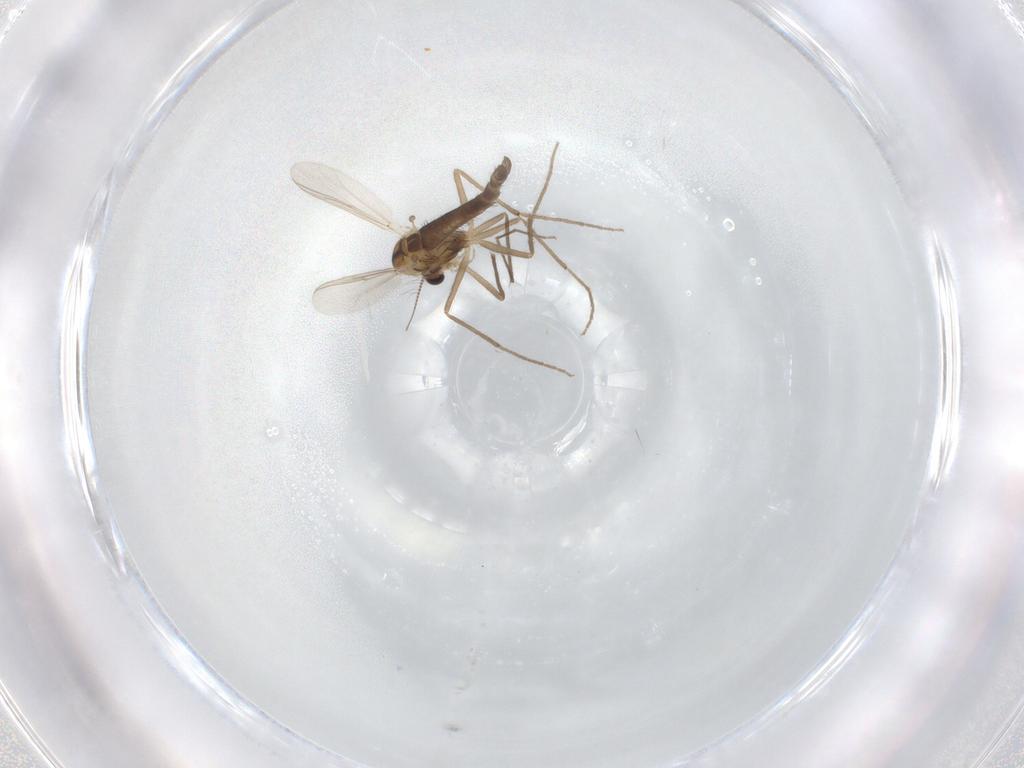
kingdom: Animalia
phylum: Arthropoda
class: Insecta
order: Diptera
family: Chironomidae
